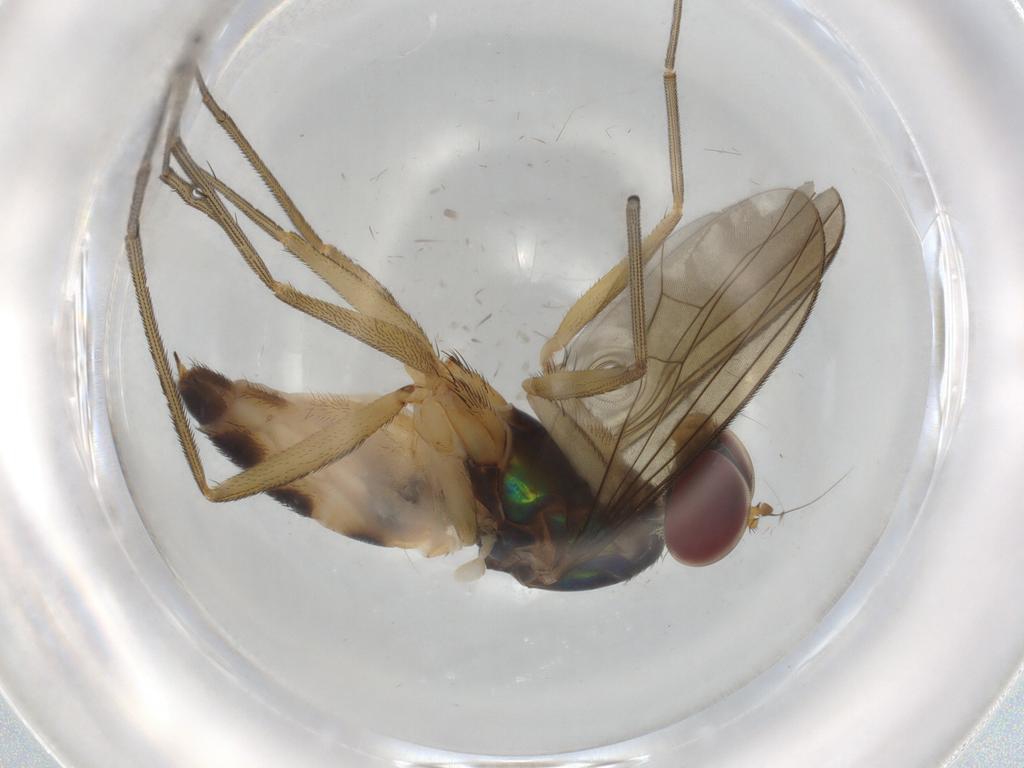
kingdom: Animalia
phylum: Arthropoda
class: Insecta
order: Diptera
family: Dolichopodidae
